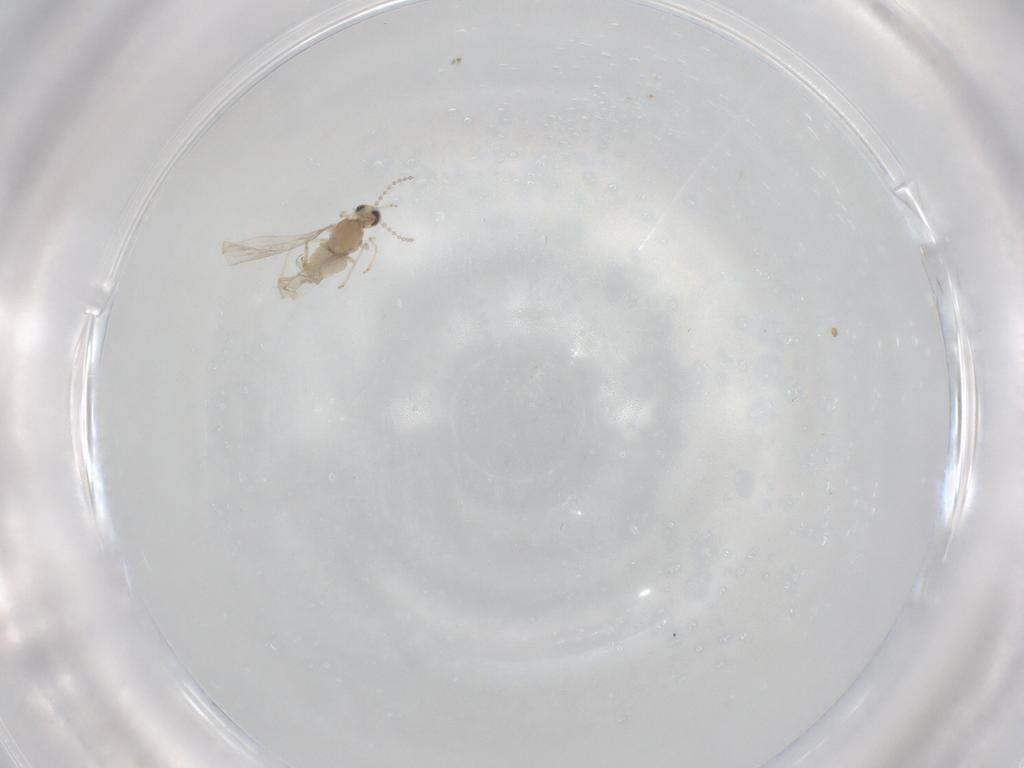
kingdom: Animalia
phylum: Arthropoda
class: Insecta
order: Diptera
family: Cecidomyiidae
